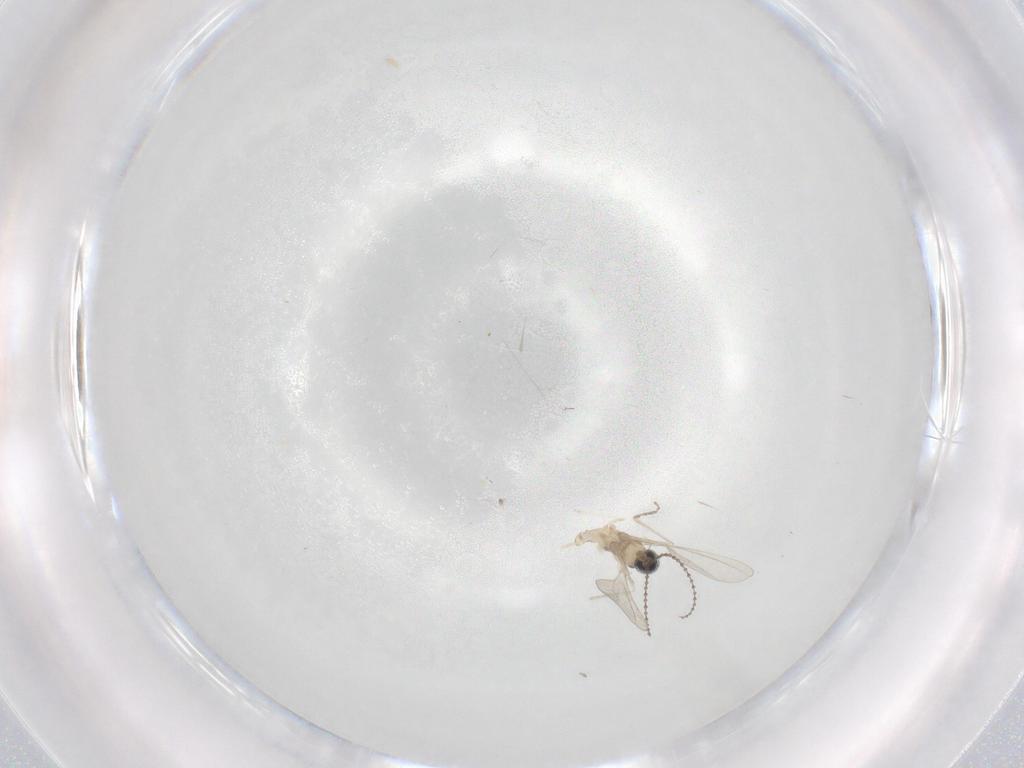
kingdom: Animalia
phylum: Arthropoda
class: Insecta
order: Diptera
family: Cecidomyiidae
